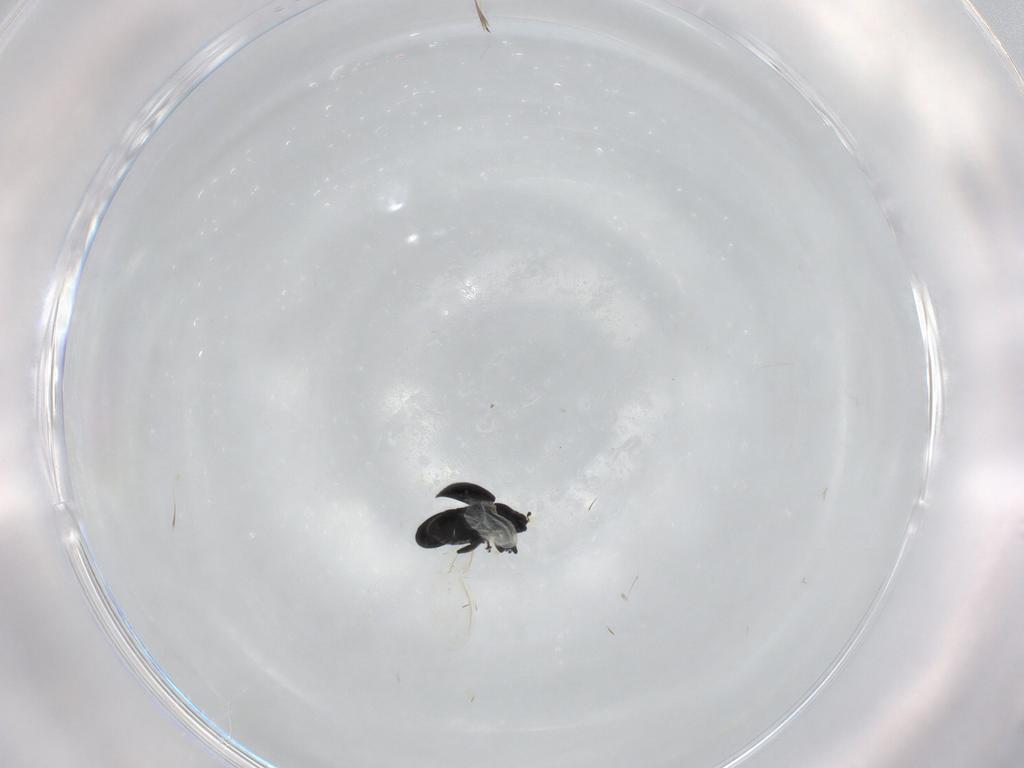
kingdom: Animalia
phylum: Arthropoda
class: Insecta
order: Coleoptera
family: Curculionidae
